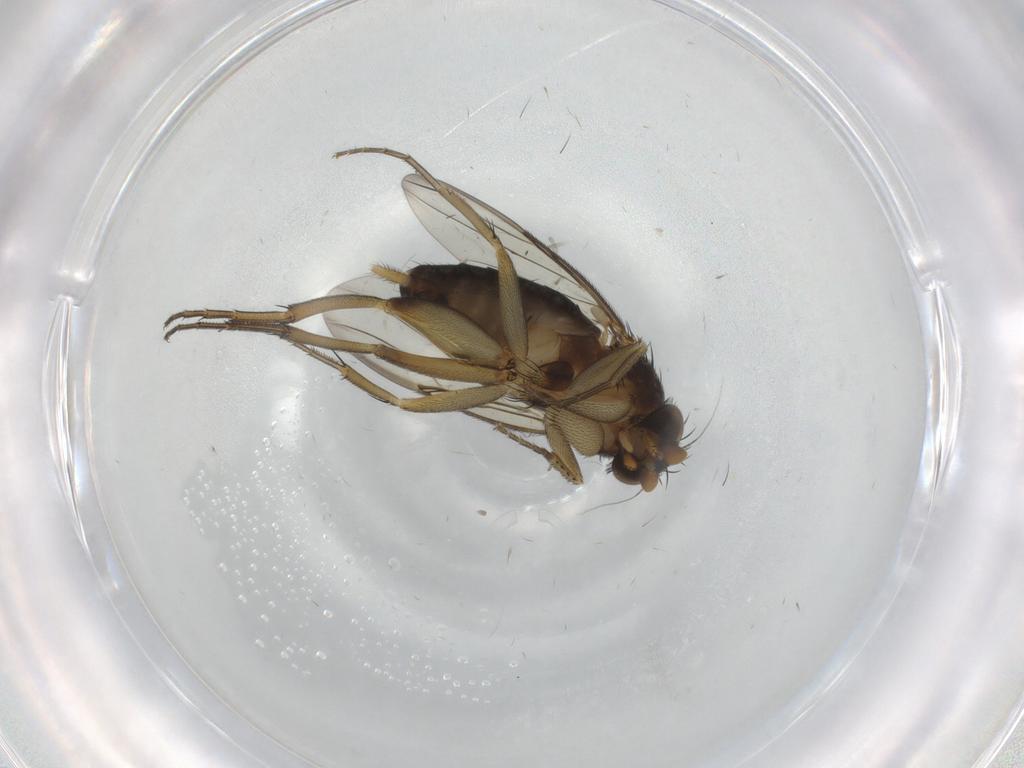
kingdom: Animalia
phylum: Arthropoda
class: Insecta
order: Diptera
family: Phoridae
